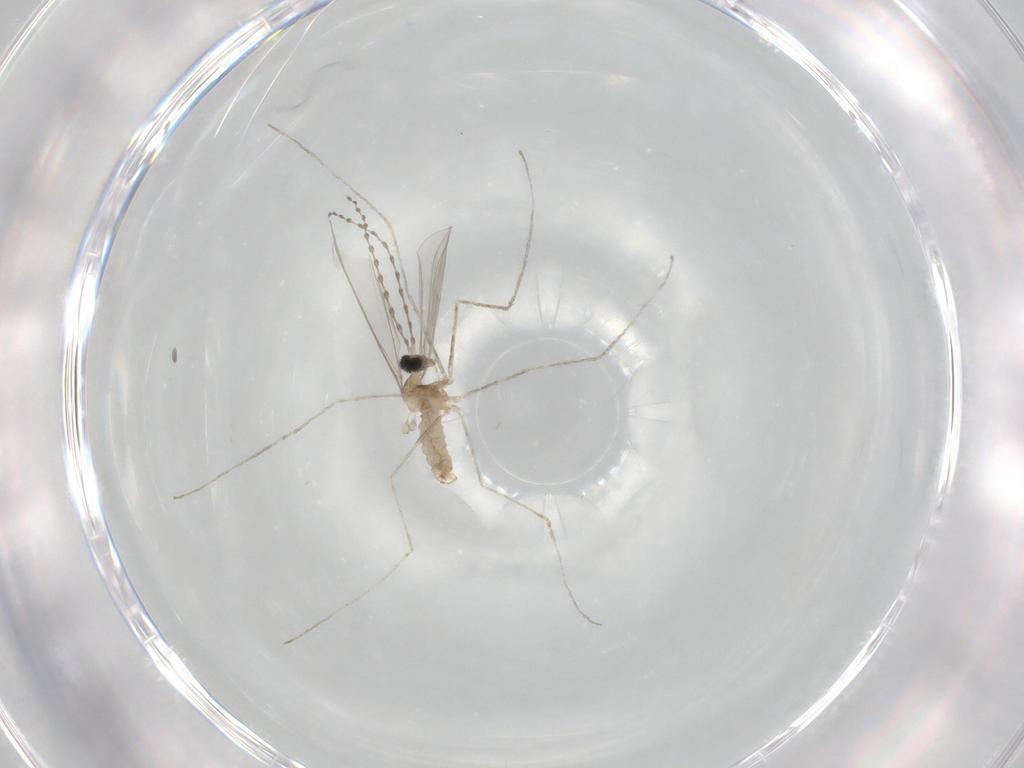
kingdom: Animalia
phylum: Arthropoda
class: Insecta
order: Diptera
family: Cecidomyiidae
